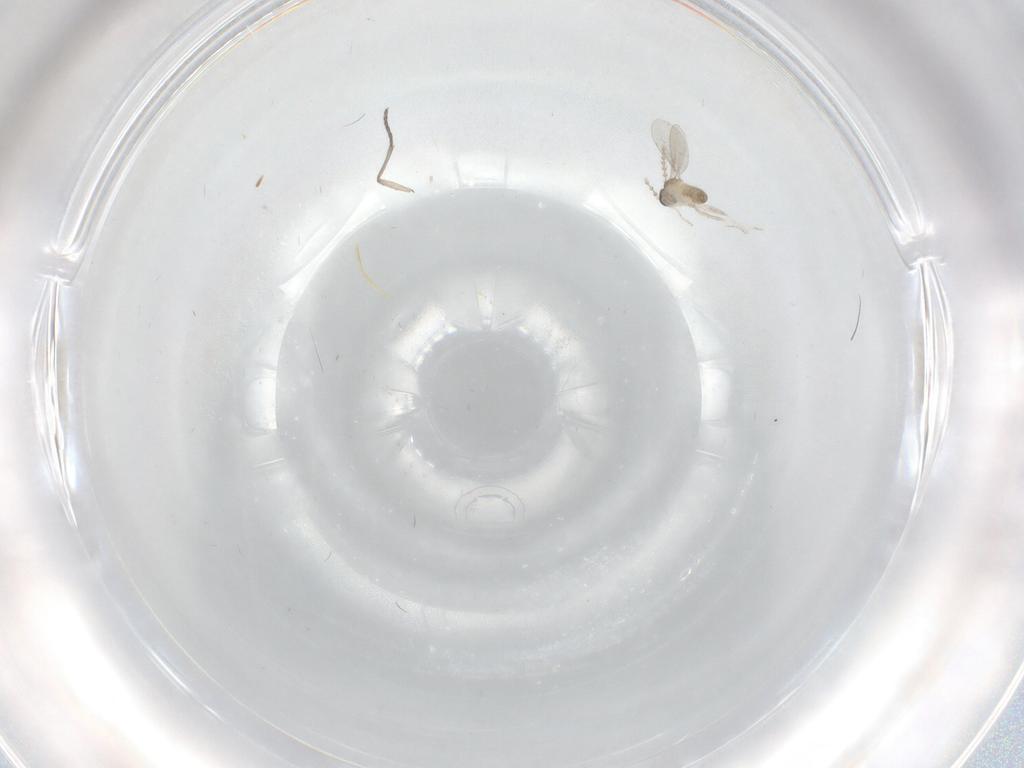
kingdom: Animalia
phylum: Arthropoda
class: Insecta
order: Diptera
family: Cecidomyiidae
